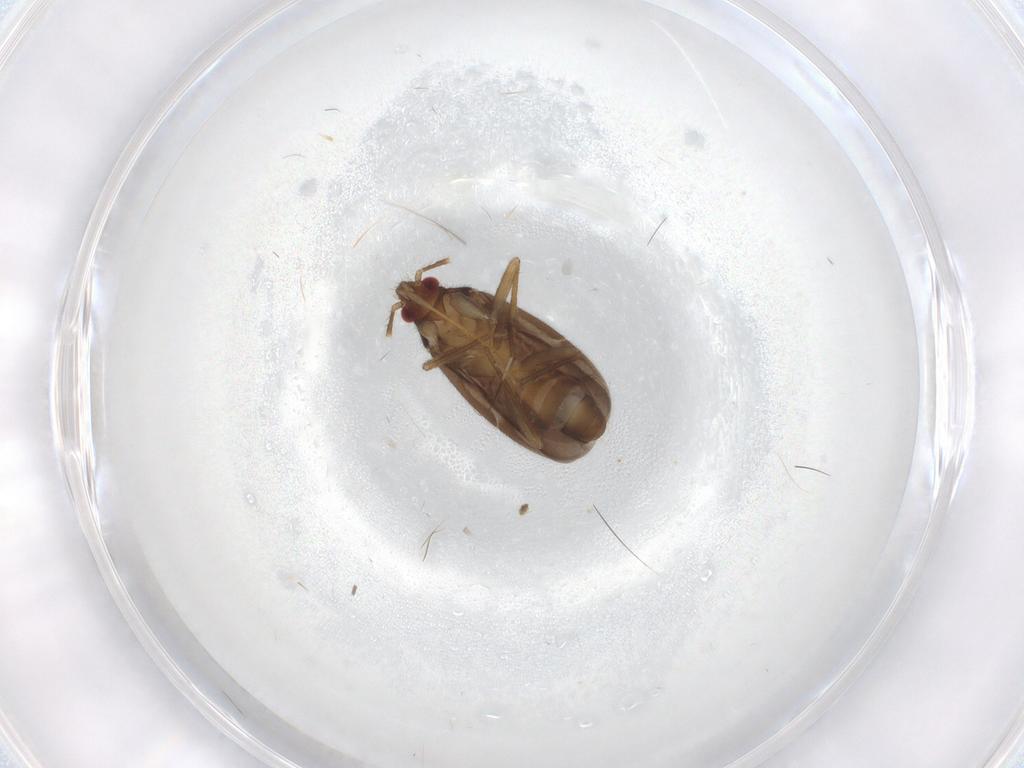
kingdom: Animalia
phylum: Arthropoda
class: Insecta
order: Hemiptera
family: Ceratocombidae
